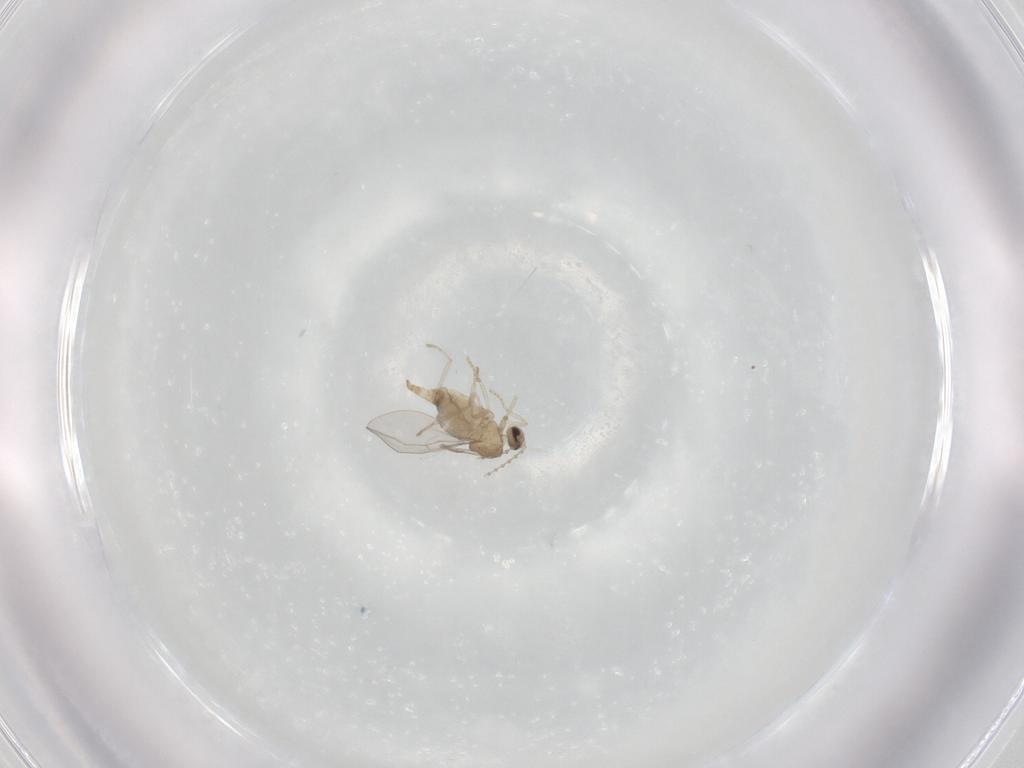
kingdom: Animalia
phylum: Arthropoda
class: Insecta
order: Diptera
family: Cecidomyiidae
